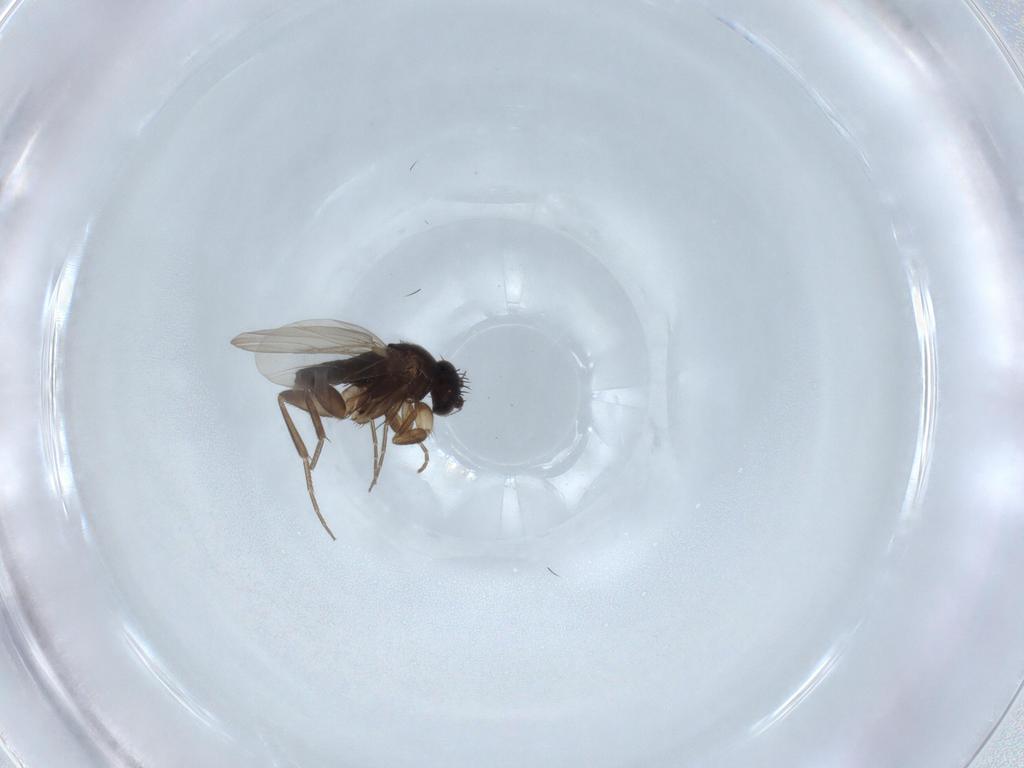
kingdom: Animalia
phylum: Arthropoda
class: Insecta
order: Diptera
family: Phoridae
